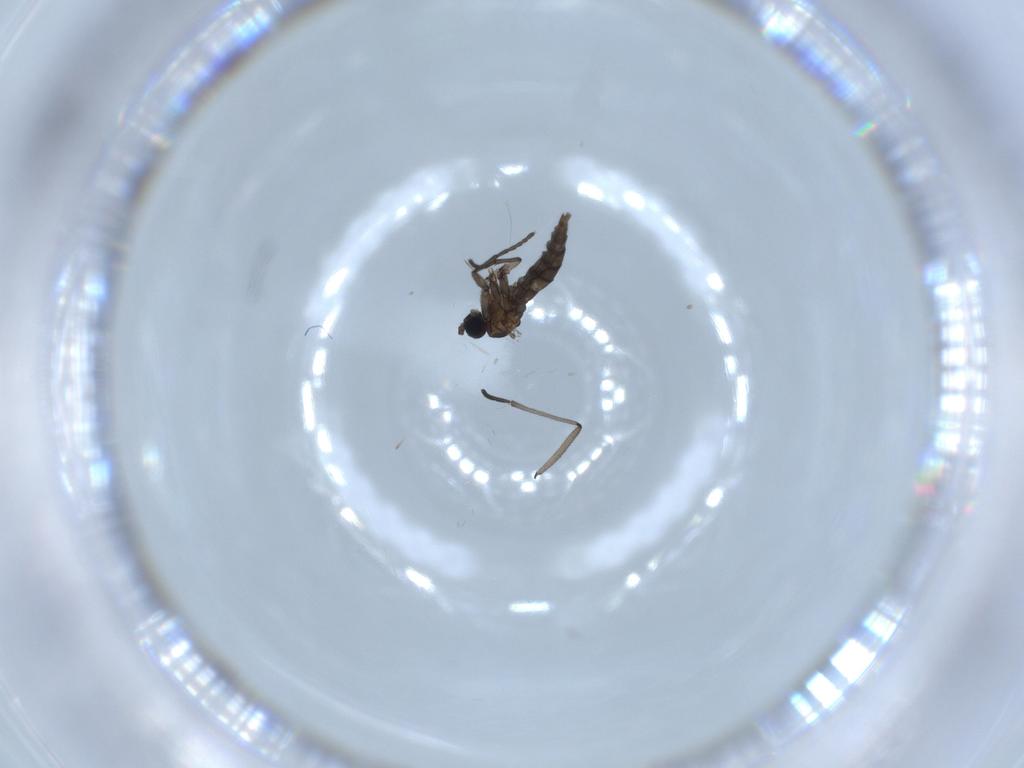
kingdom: Animalia
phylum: Arthropoda
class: Insecta
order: Diptera
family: Sciaridae
